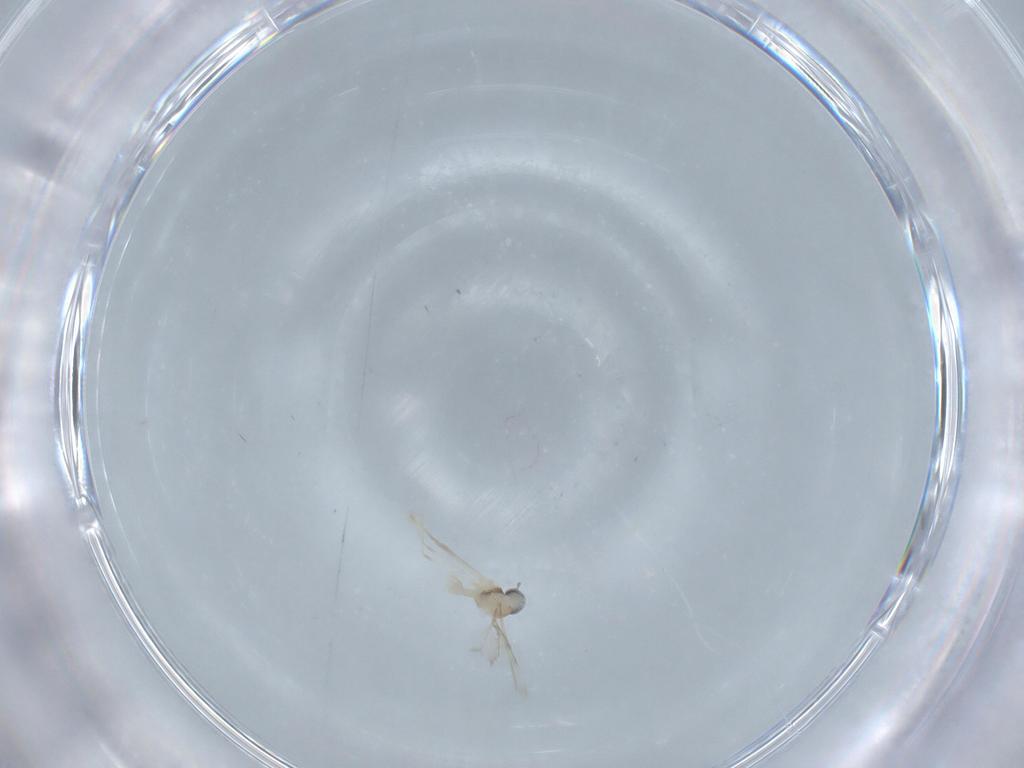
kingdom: Animalia
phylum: Arthropoda
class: Insecta
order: Diptera
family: Cecidomyiidae
